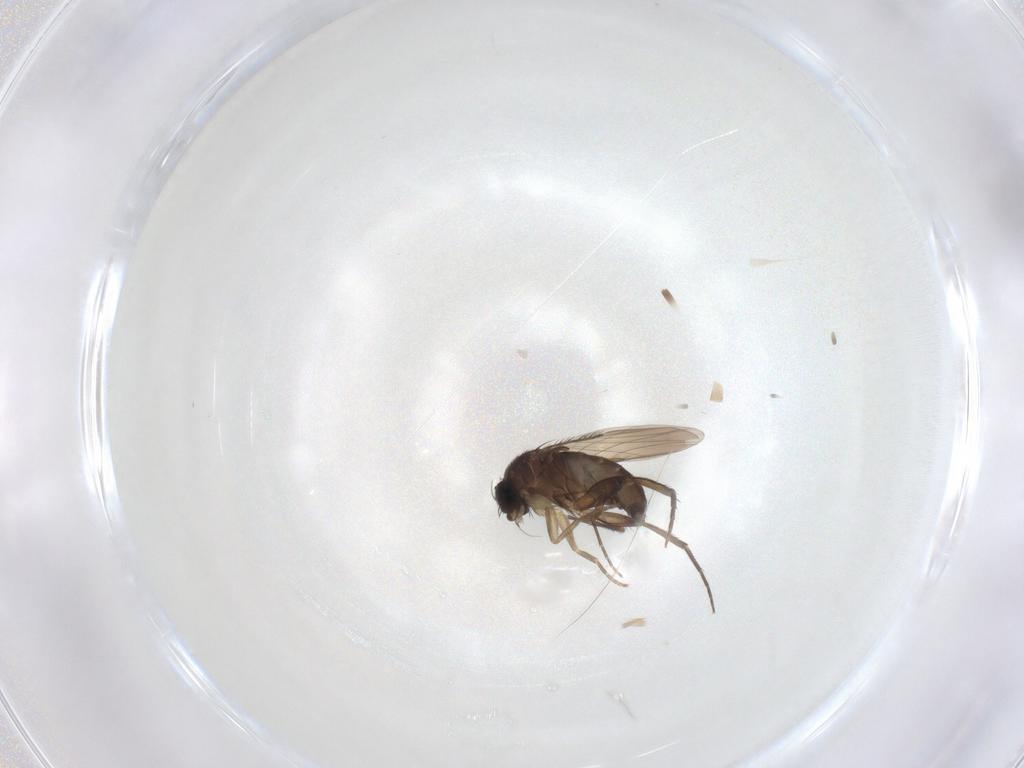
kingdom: Animalia
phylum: Arthropoda
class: Insecta
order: Diptera
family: Phoridae
